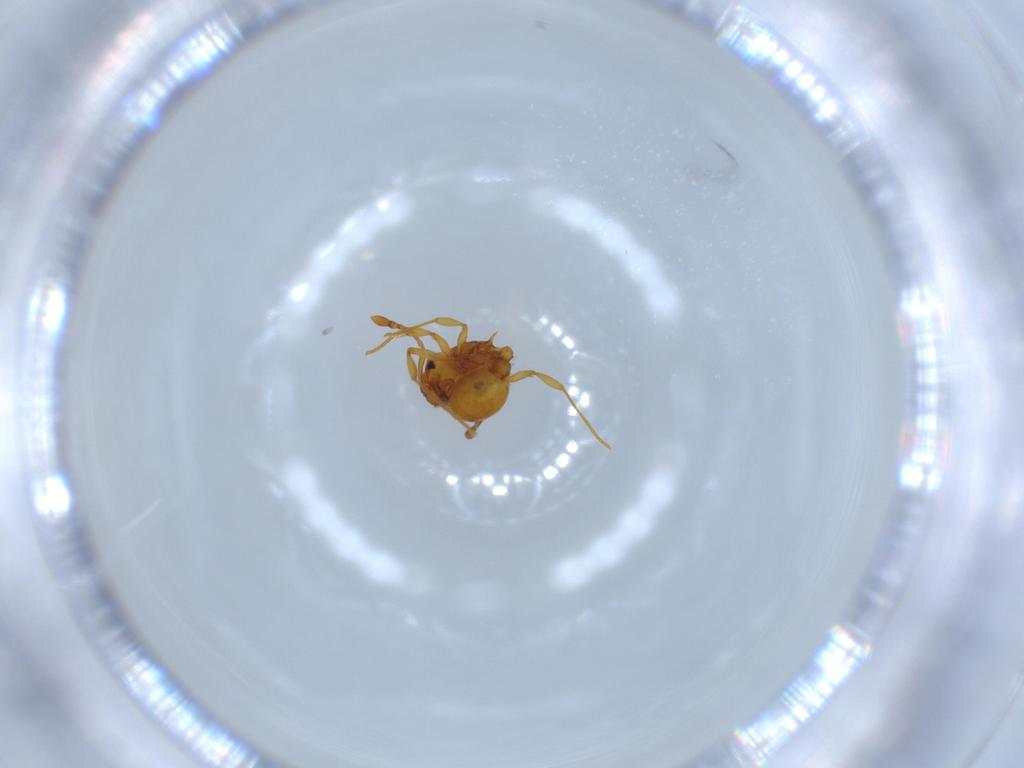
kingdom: Animalia
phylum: Arthropoda
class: Insecta
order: Hymenoptera
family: Formicidae
